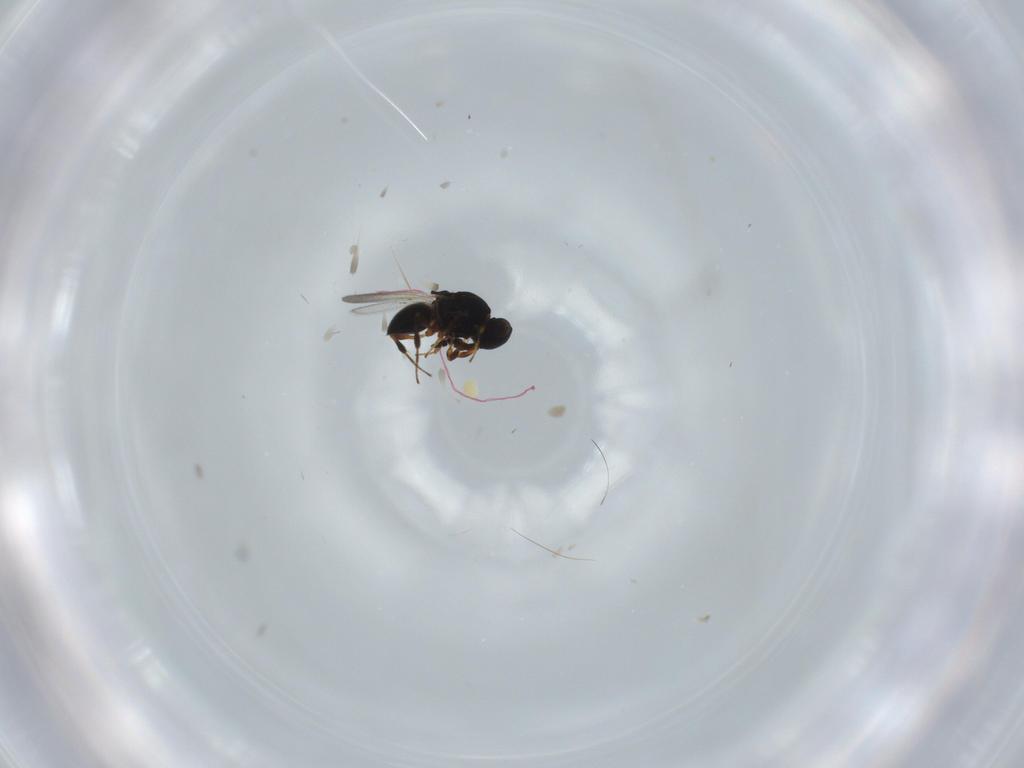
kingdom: Animalia
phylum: Arthropoda
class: Insecta
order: Hymenoptera
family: Platygastridae
